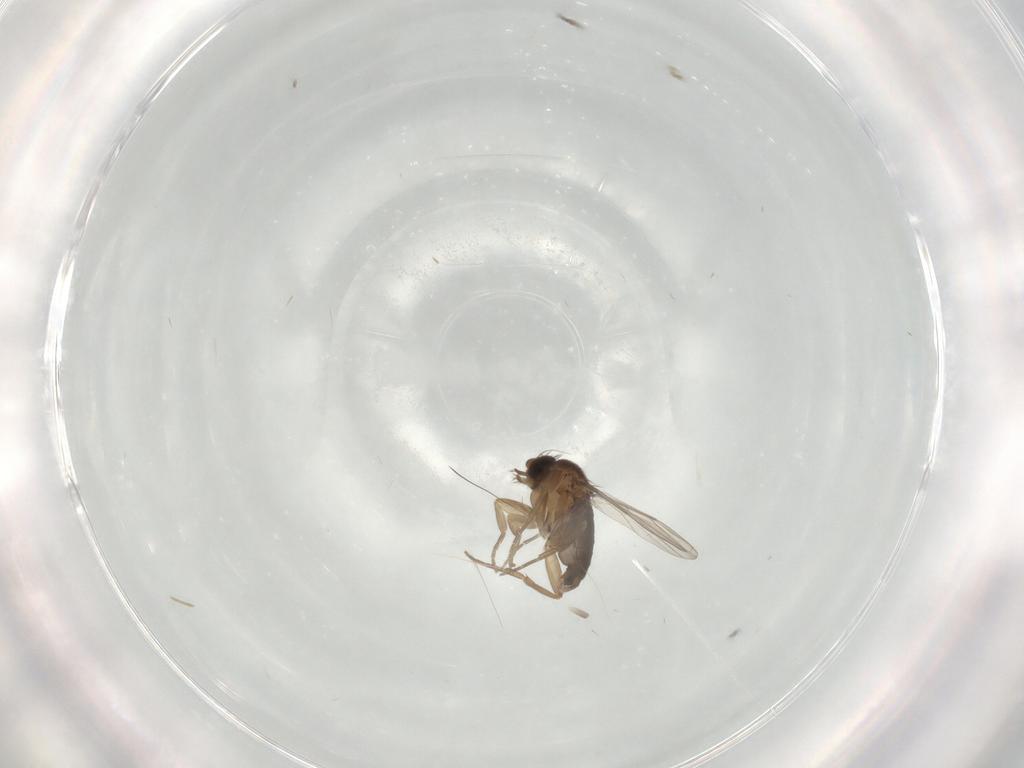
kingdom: Animalia
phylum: Arthropoda
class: Insecta
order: Diptera
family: Phoridae
